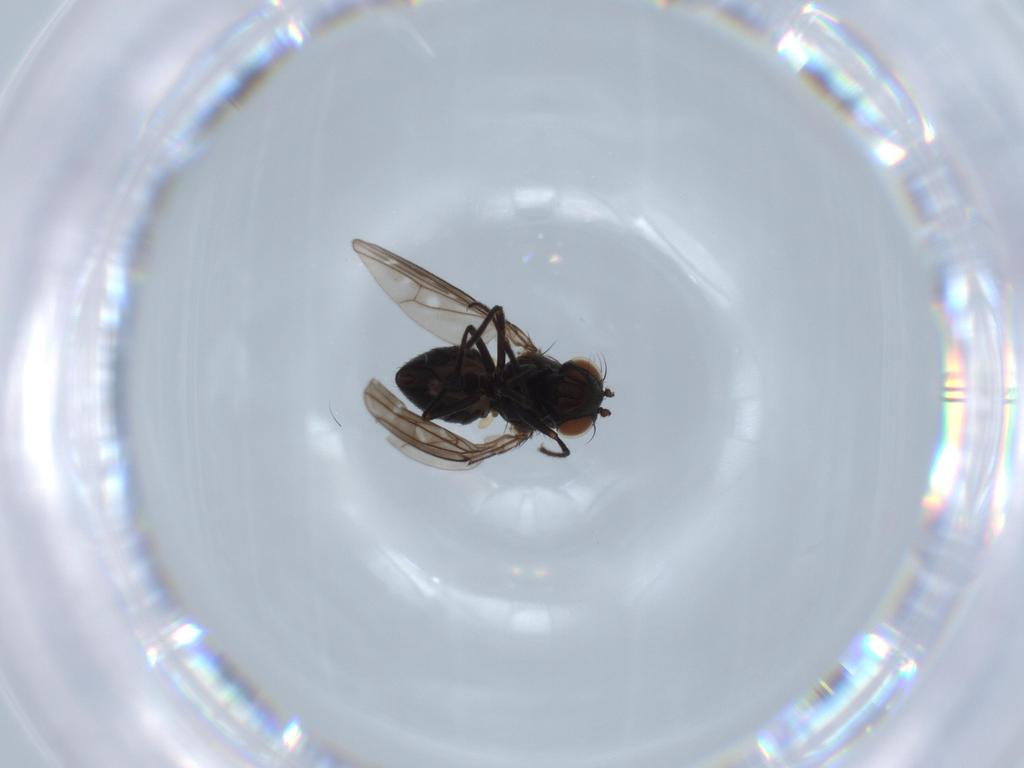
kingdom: Animalia
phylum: Arthropoda
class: Insecta
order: Diptera
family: Ephydridae
